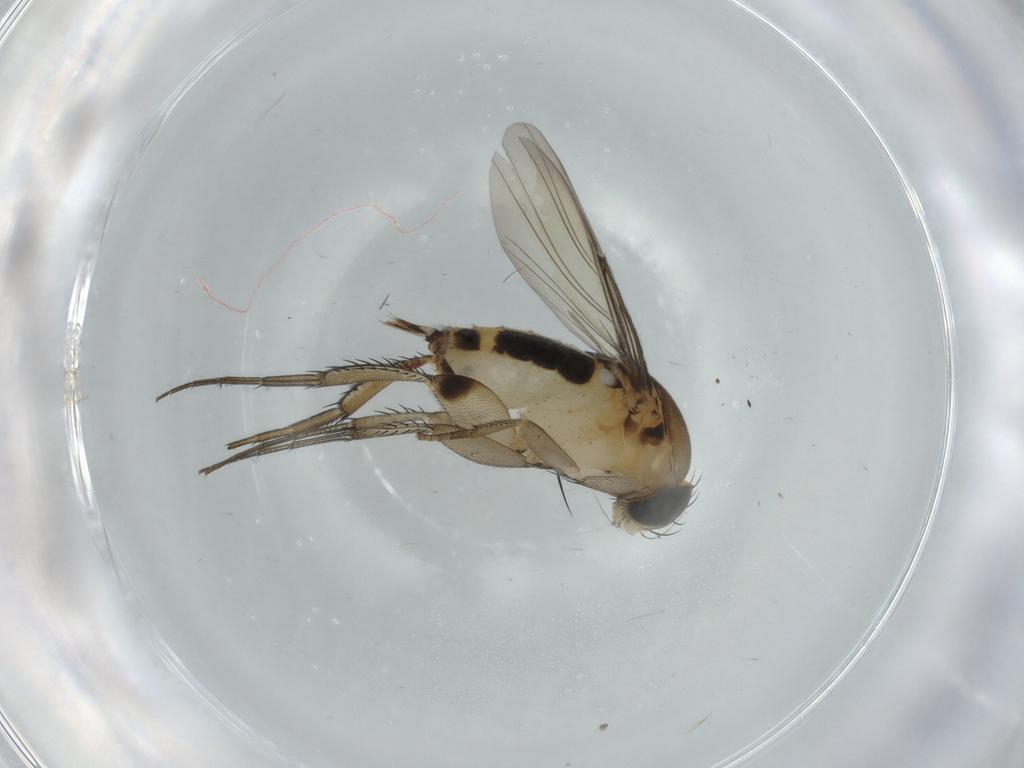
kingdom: Animalia
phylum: Arthropoda
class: Insecta
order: Diptera
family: Phoridae
